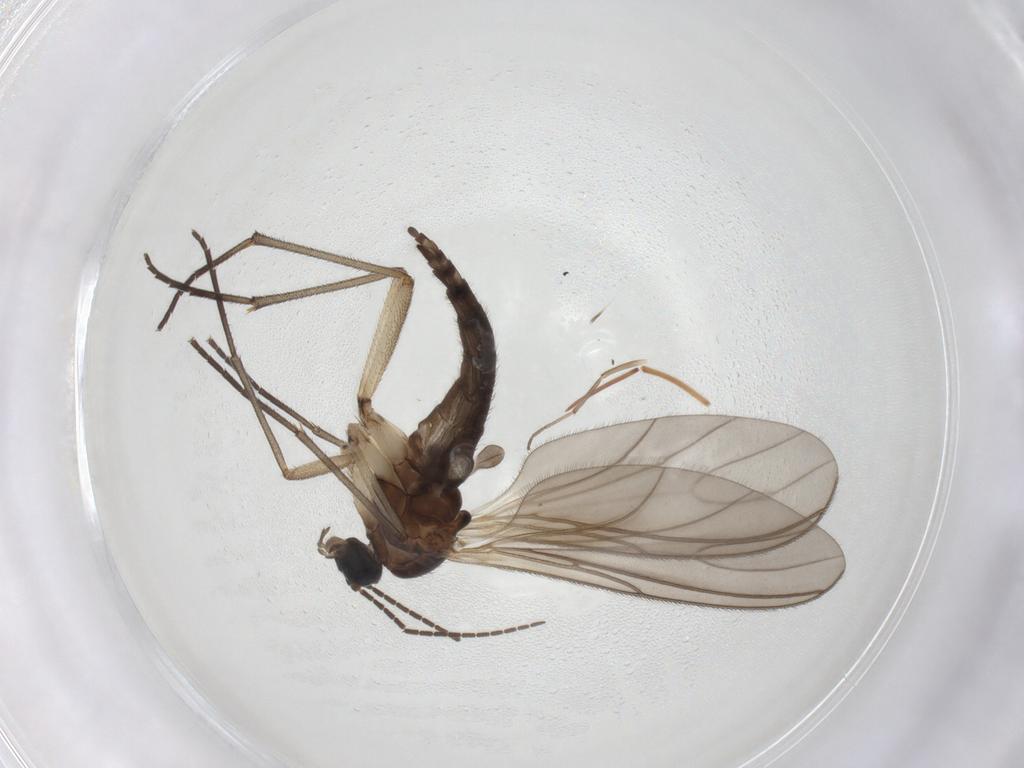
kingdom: Animalia
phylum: Arthropoda
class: Insecta
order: Diptera
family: Sciaridae
